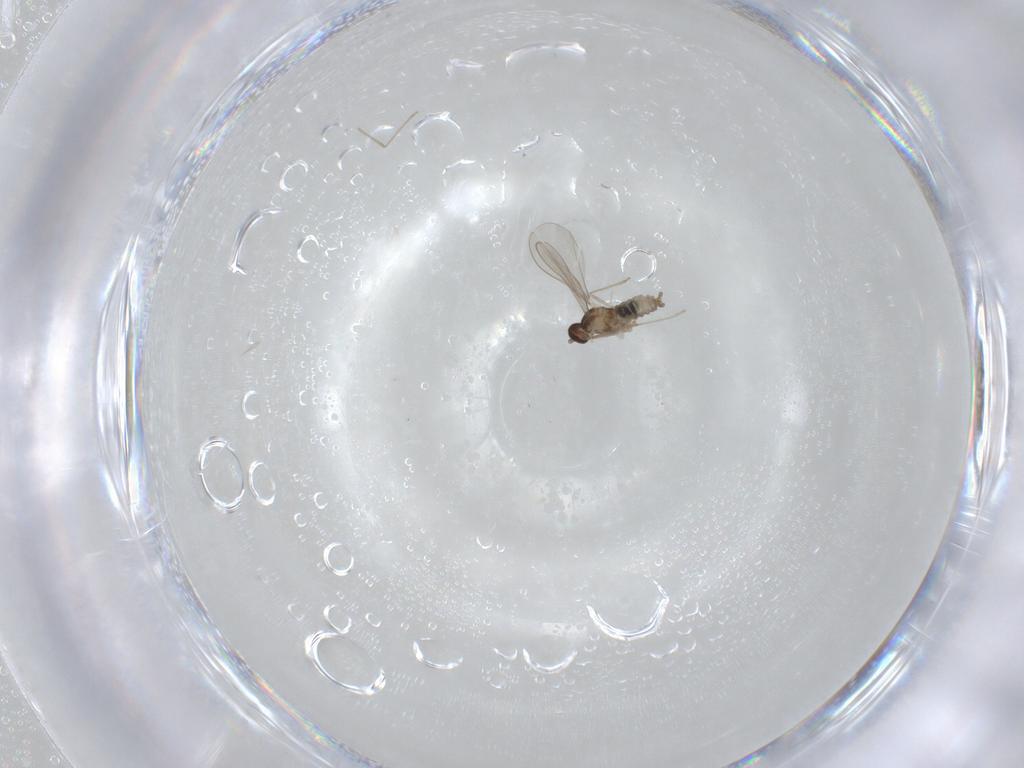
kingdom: Animalia
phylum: Arthropoda
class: Insecta
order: Diptera
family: Cecidomyiidae
